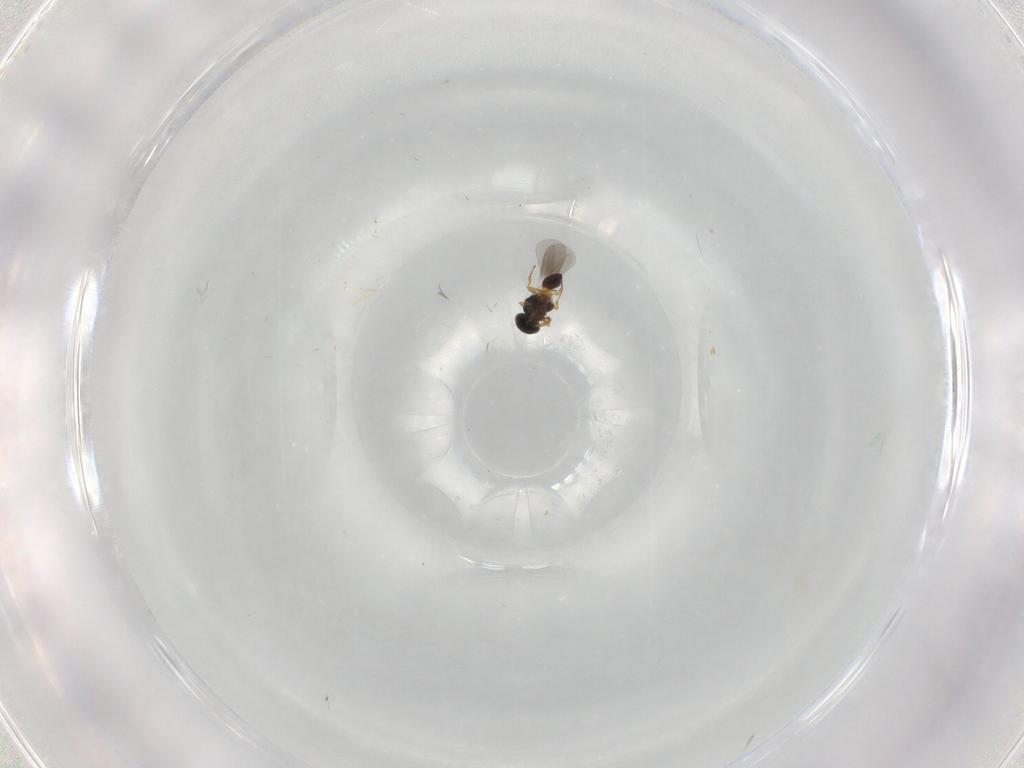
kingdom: Animalia
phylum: Arthropoda
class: Insecta
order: Hymenoptera
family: Platygastridae
